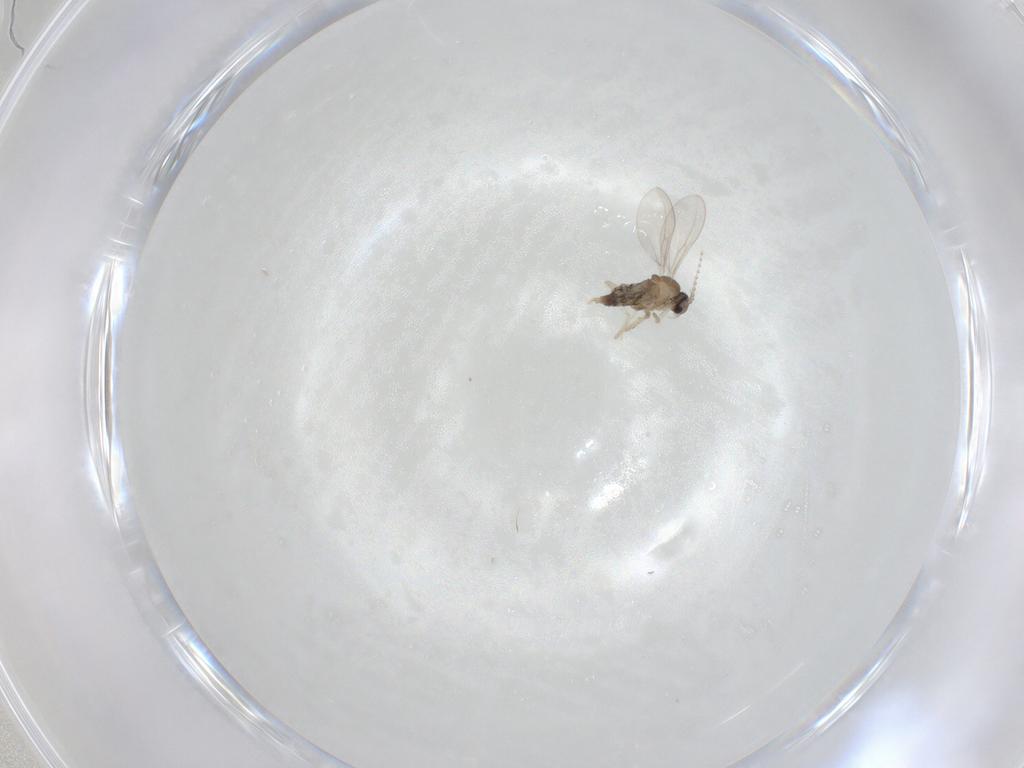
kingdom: Animalia
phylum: Arthropoda
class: Insecta
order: Diptera
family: Cecidomyiidae
